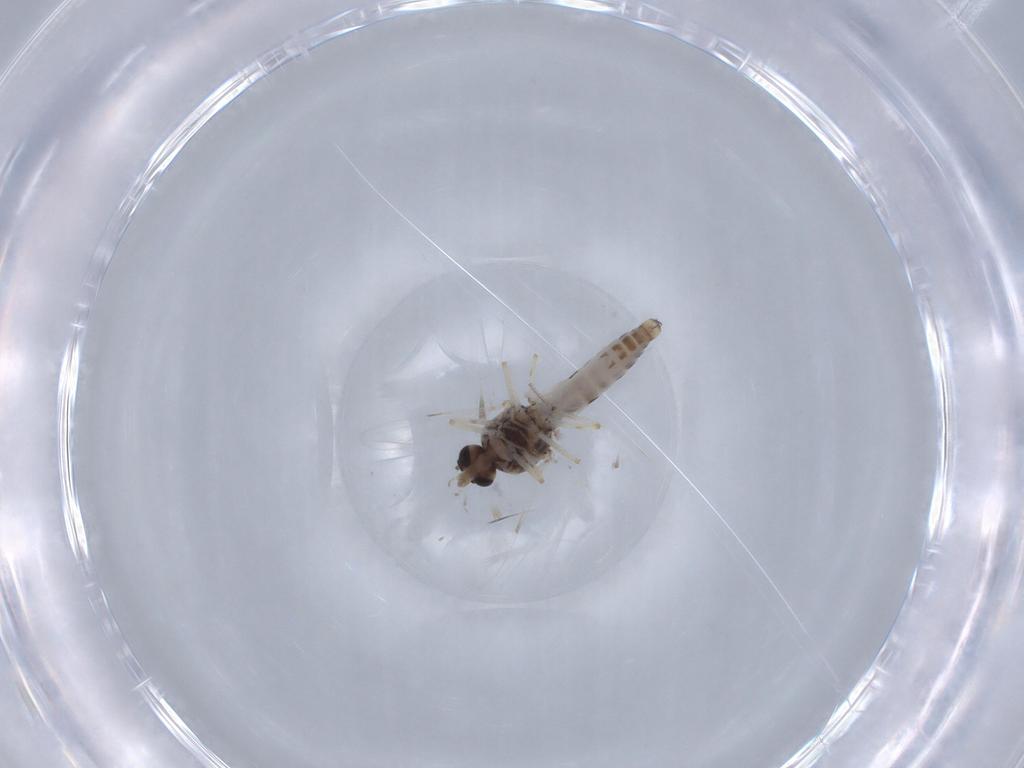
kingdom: Animalia
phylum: Arthropoda
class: Insecta
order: Diptera
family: Ceratopogonidae
